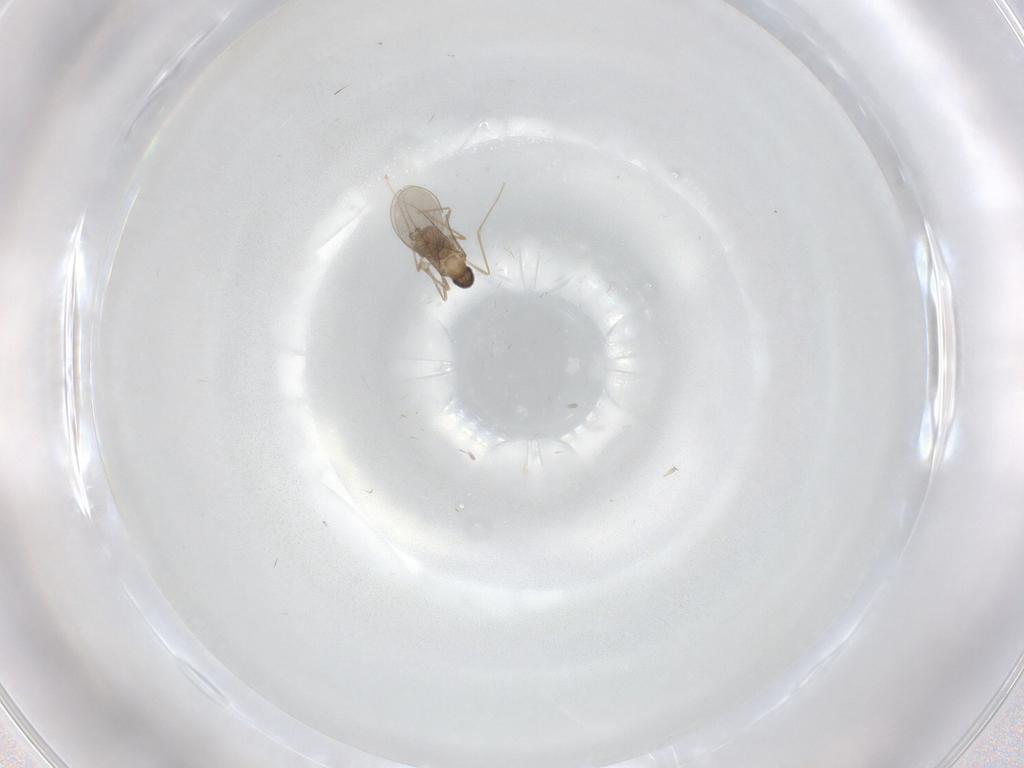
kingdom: Animalia
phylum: Arthropoda
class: Insecta
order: Diptera
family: Cecidomyiidae
